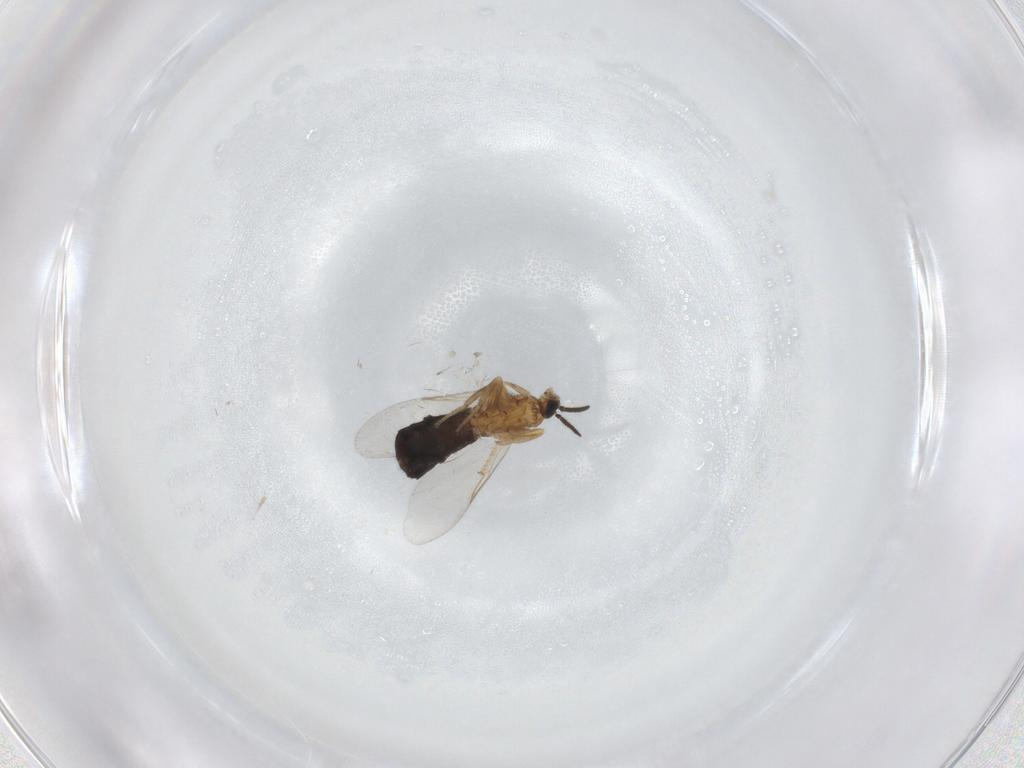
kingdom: Animalia
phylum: Arthropoda
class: Insecta
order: Diptera
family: Scatopsidae
